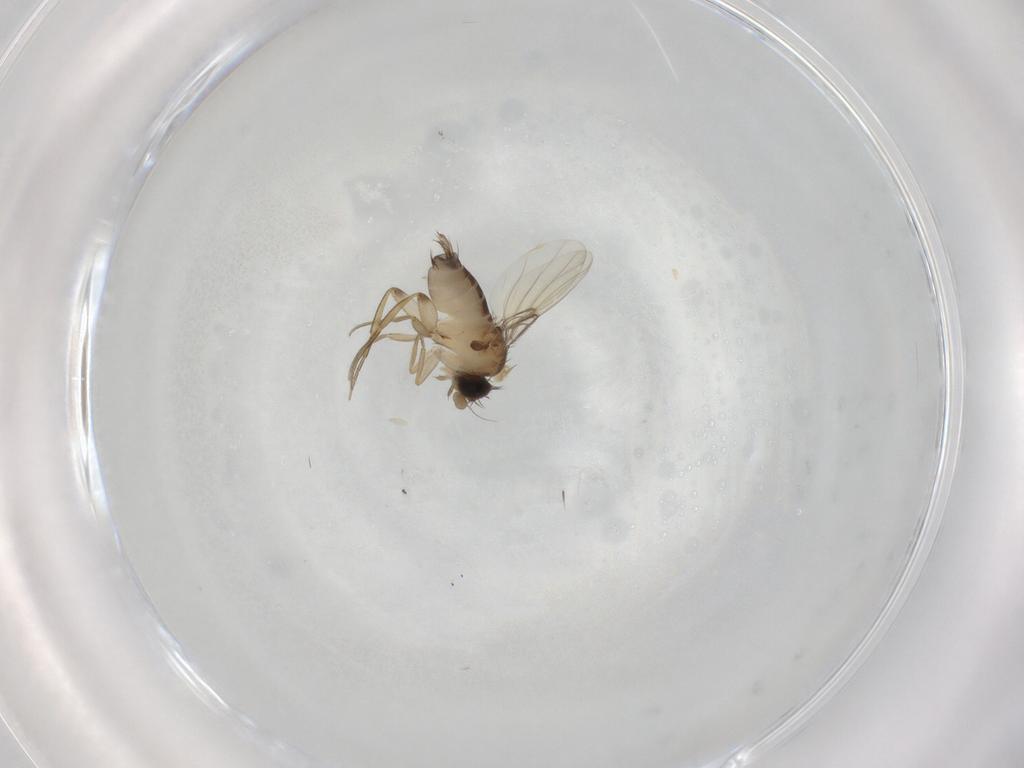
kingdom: Animalia
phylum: Arthropoda
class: Insecta
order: Diptera
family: Phoridae
